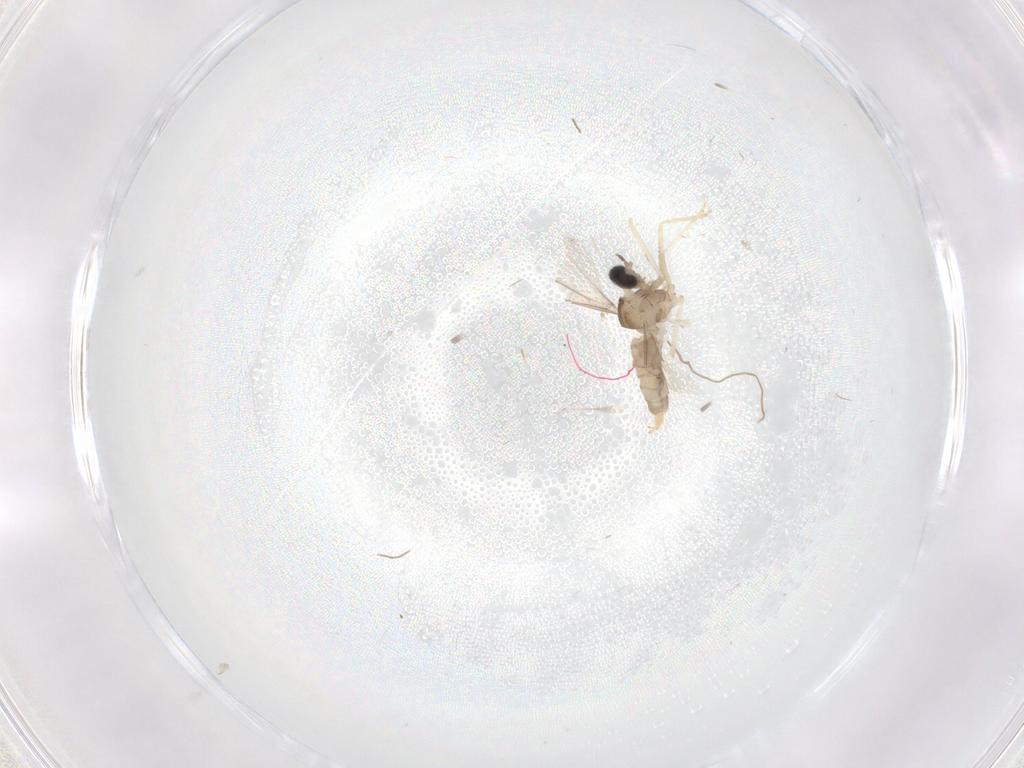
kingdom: Animalia
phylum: Arthropoda
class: Insecta
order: Diptera
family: Cecidomyiidae
